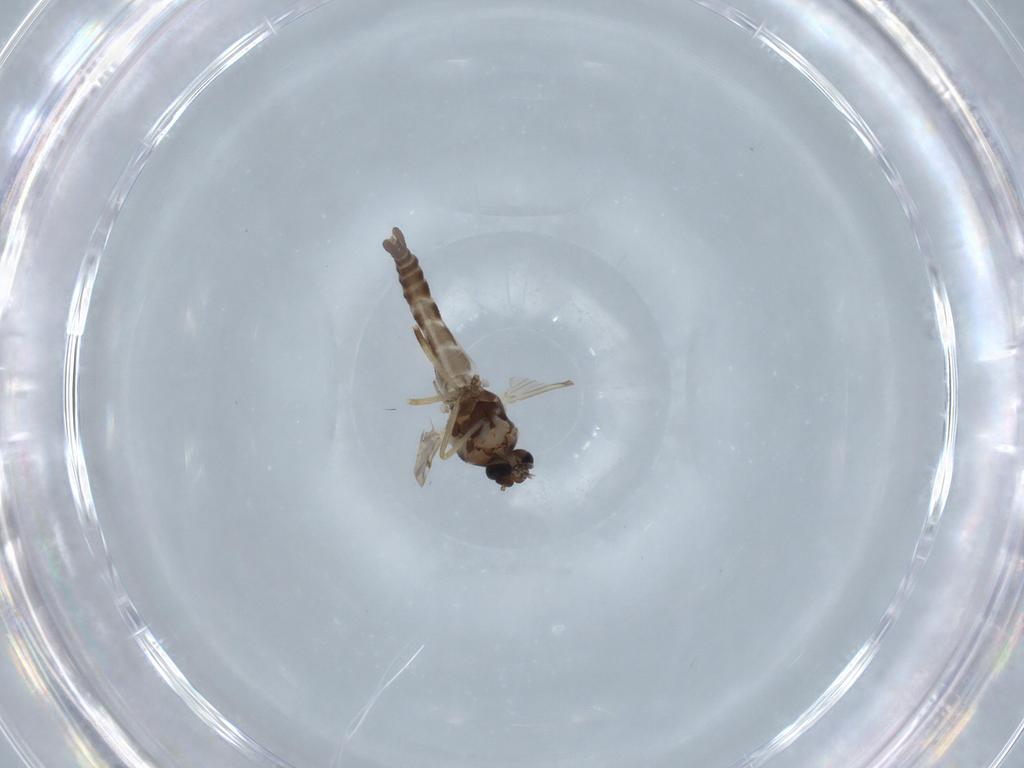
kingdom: Animalia
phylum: Arthropoda
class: Insecta
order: Diptera
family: Ceratopogonidae
